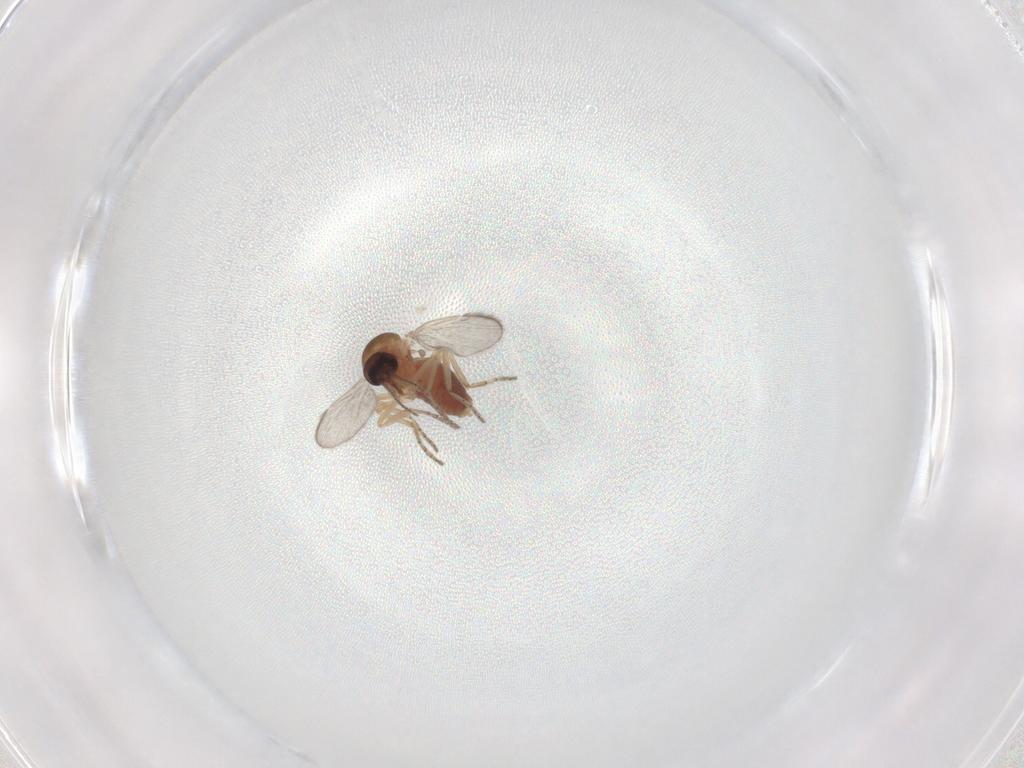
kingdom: Animalia
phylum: Arthropoda
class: Insecta
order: Diptera
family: Ceratopogonidae
